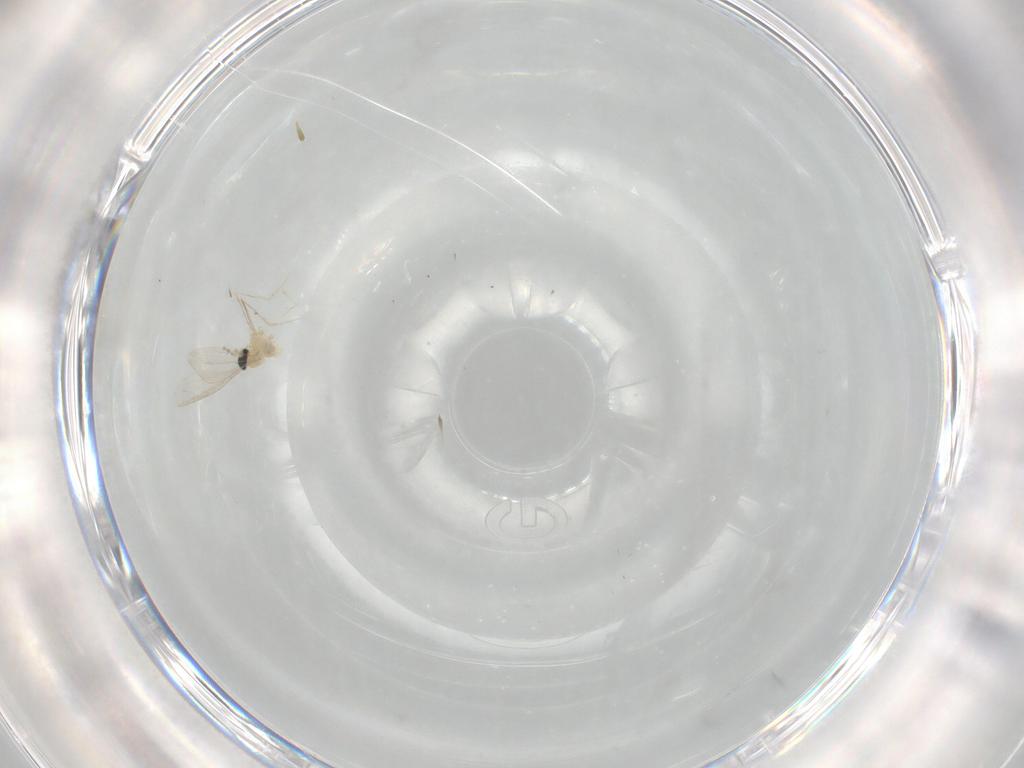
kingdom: Animalia
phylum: Arthropoda
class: Insecta
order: Diptera
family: Cecidomyiidae
